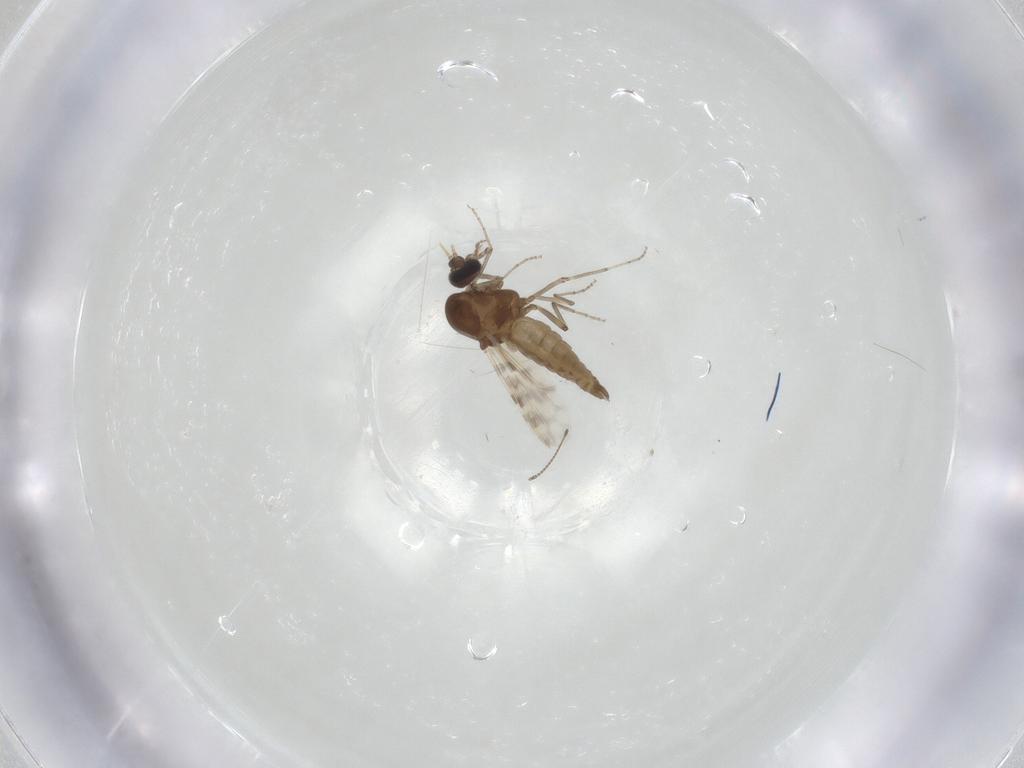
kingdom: Animalia
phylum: Arthropoda
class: Insecta
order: Diptera
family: Chironomidae
